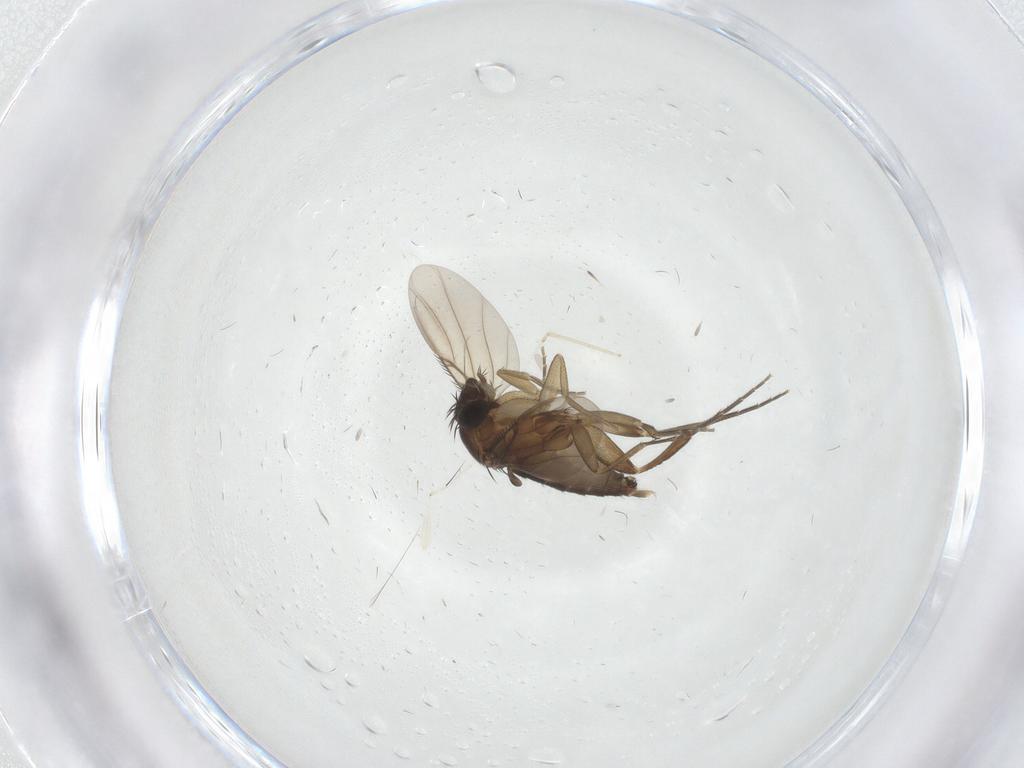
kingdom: Animalia
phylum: Arthropoda
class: Insecta
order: Diptera
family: Cecidomyiidae
